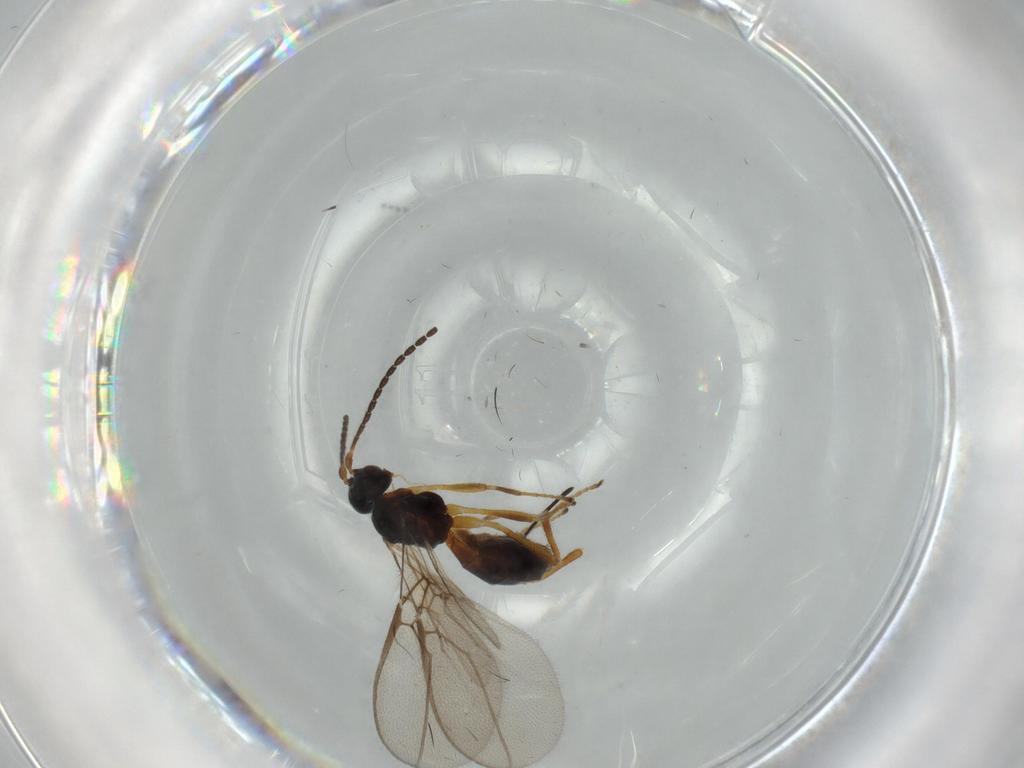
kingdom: Animalia
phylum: Arthropoda
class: Insecta
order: Hymenoptera
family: Braconidae
